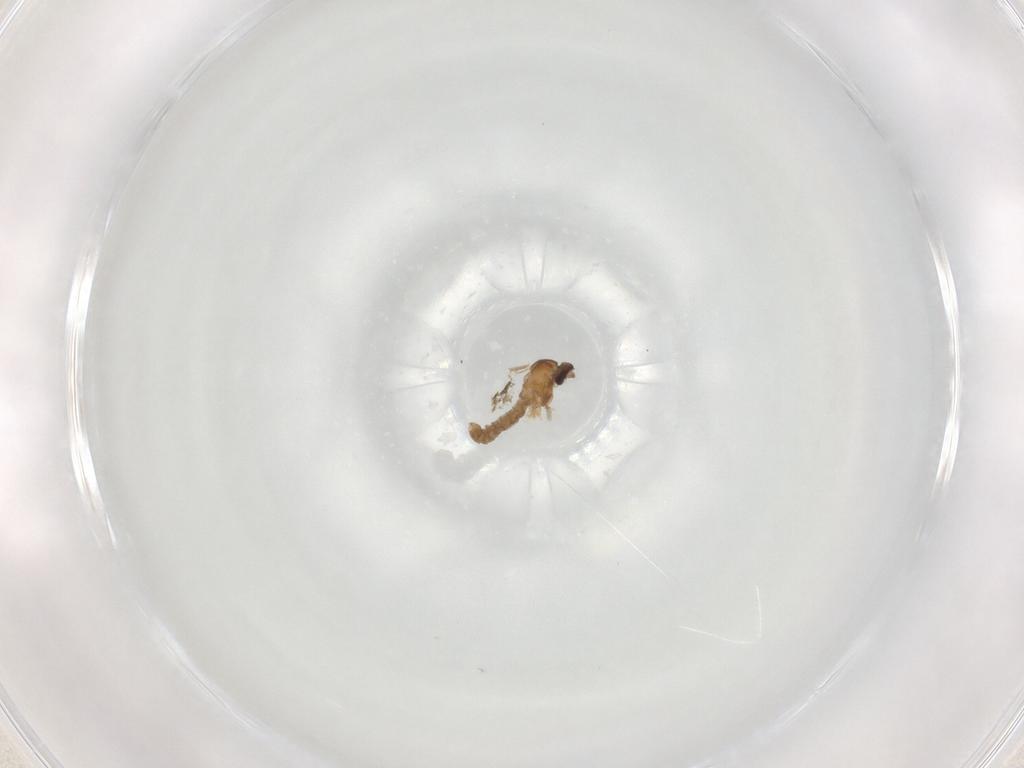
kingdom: Animalia
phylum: Arthropoda
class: Insecta
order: Diptera
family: Cecidomyiidae
